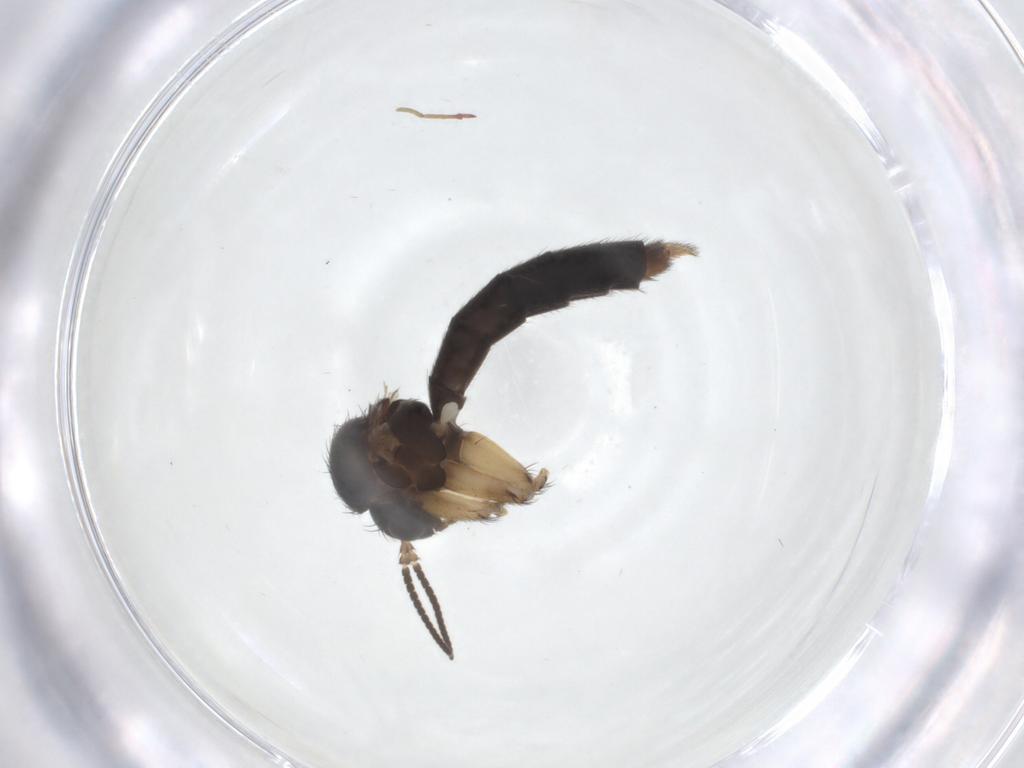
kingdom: Animalia
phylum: Arthropoda
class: Insecta
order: Diptera
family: Mycetophilidae
